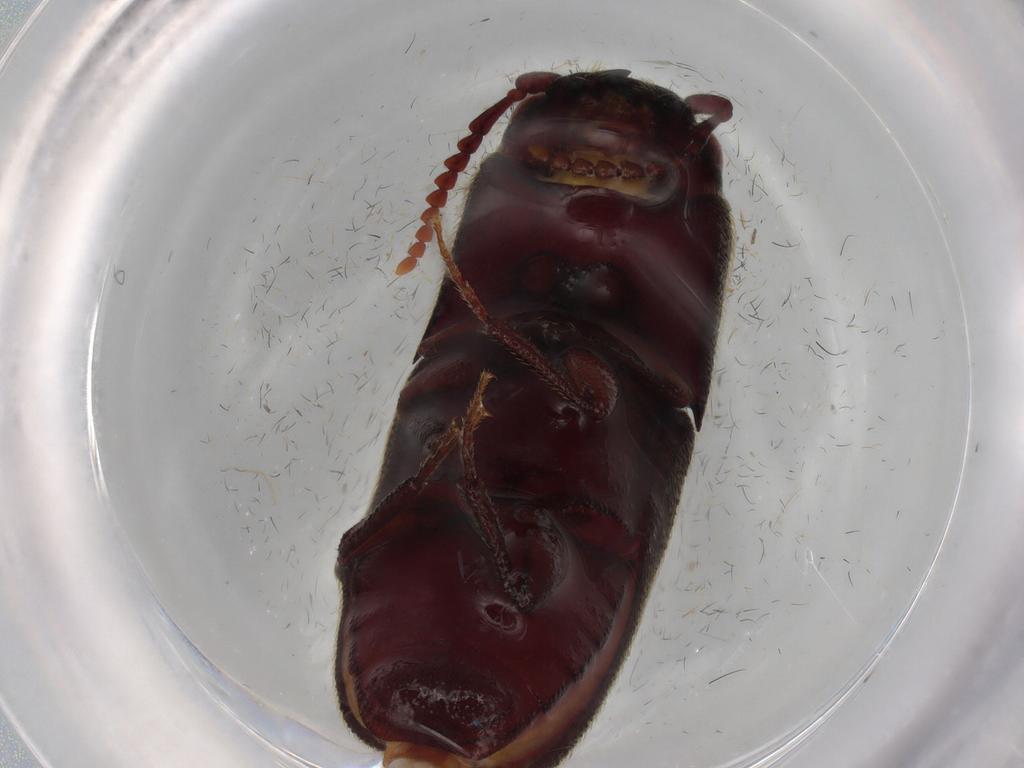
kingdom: Animalia
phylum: Arthropoda
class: Insecta
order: Coleoptera
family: Eucnemidae
